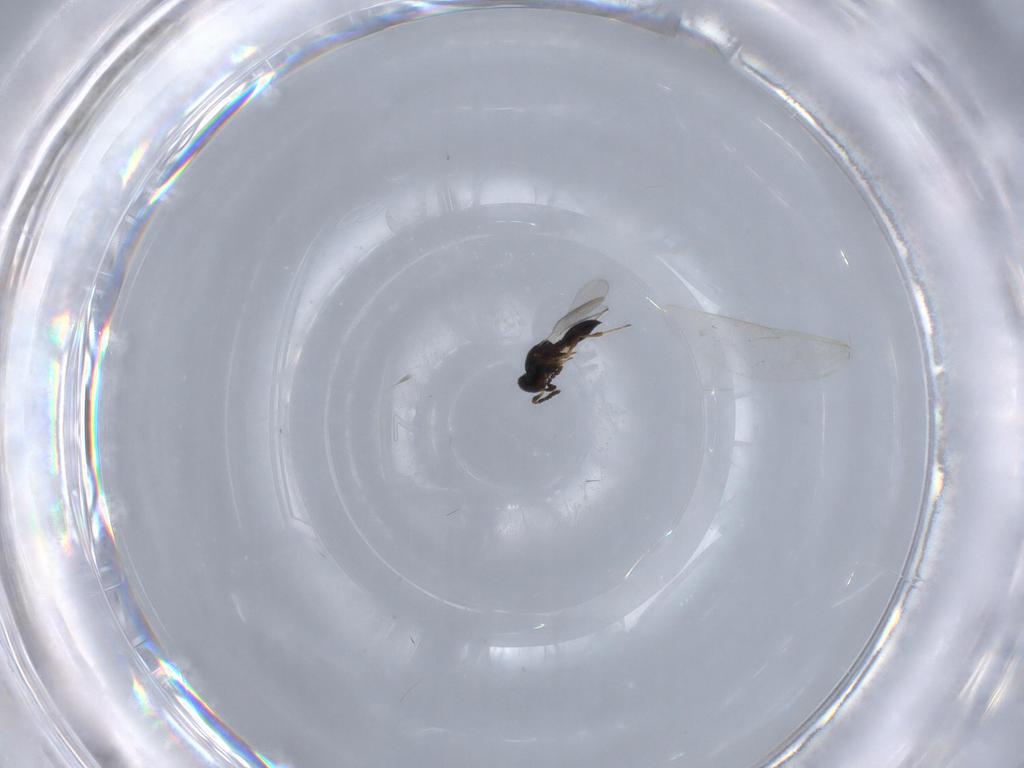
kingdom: Animalia
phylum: Arthropoda
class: Insecta
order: Hymenoptera
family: Platygastridae
